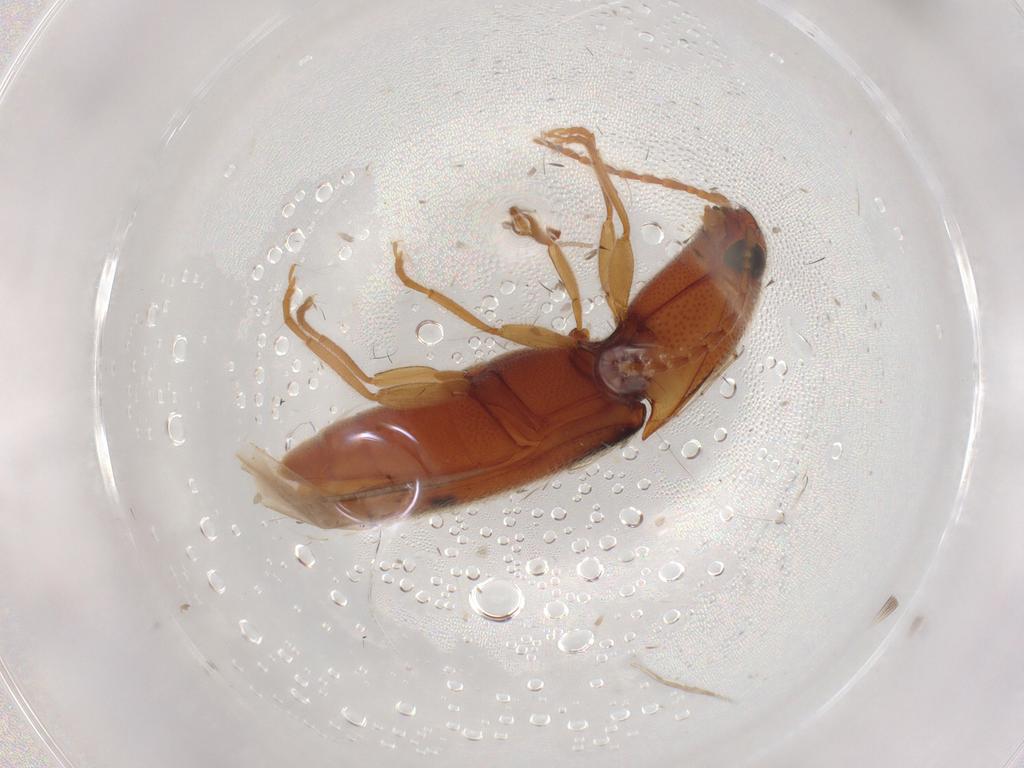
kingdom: Animalia
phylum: Arthropoda
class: Insecta
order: Coleoptera
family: Elateridae
